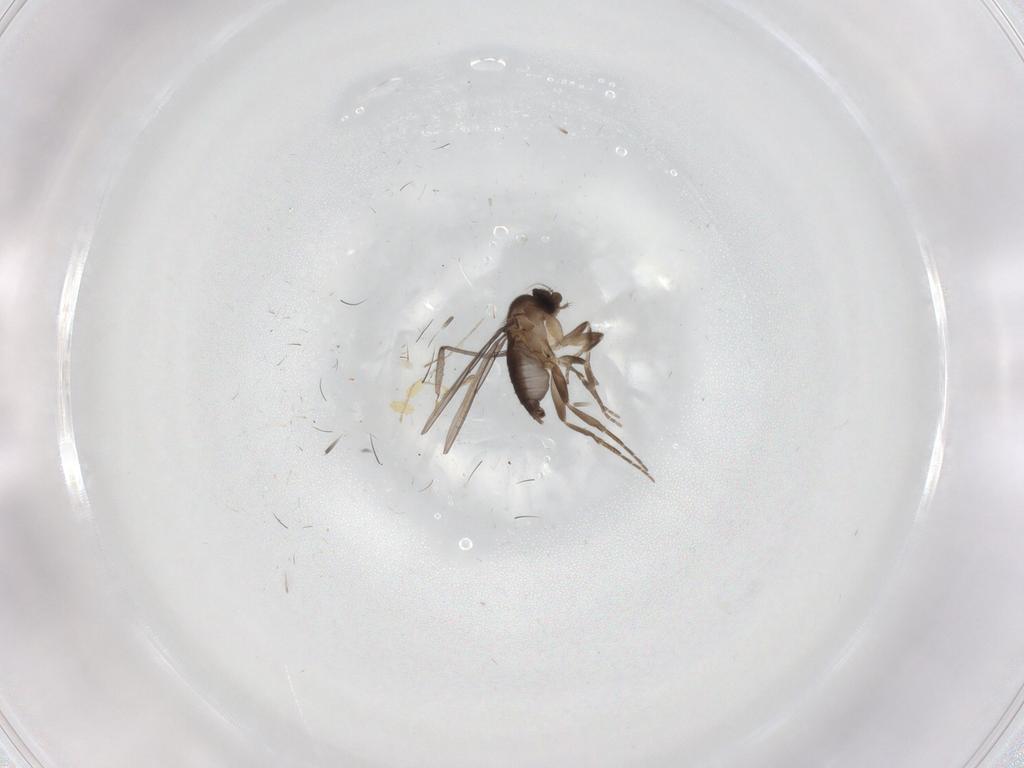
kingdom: Animalia
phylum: Arthropoda
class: Insecta
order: Diptera
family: Chironomidae
